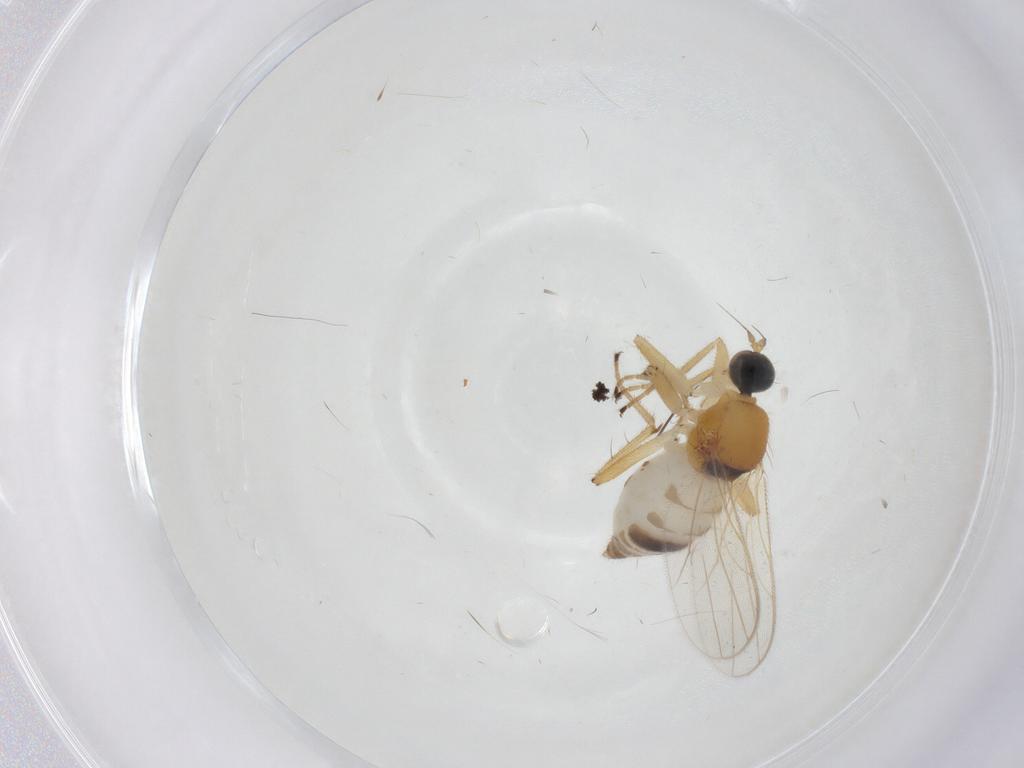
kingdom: Animalia
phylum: Arthropoda
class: Insecta
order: Diptera
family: Hybotidae
